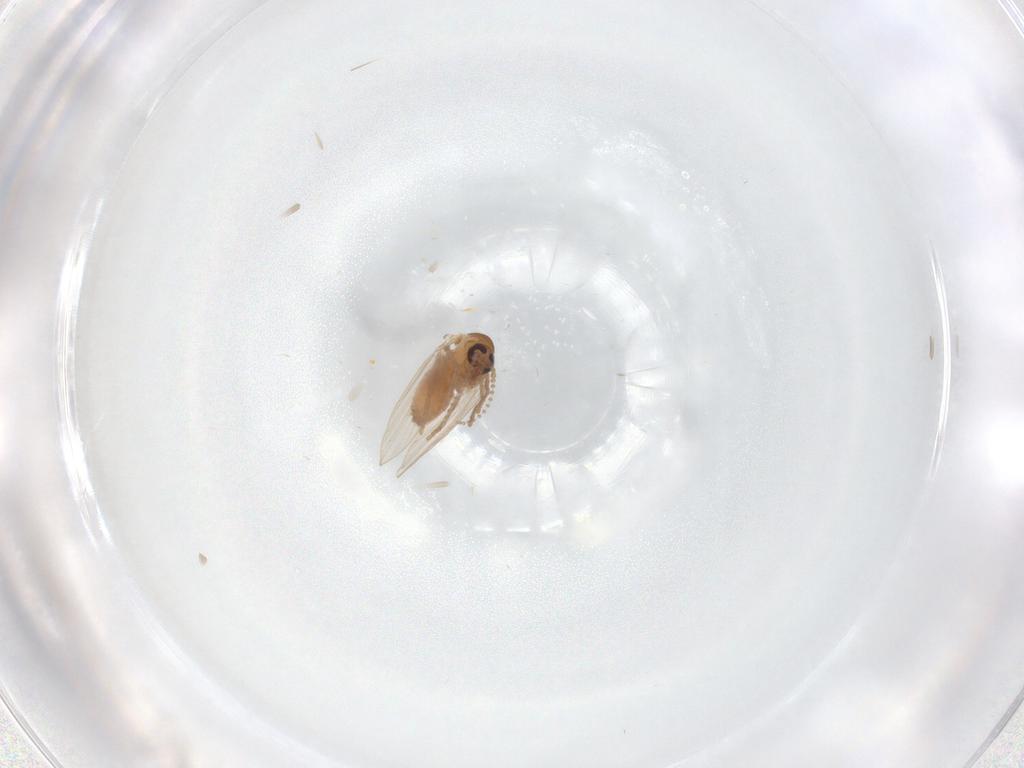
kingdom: Animalia
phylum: Arthropoda
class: Insecta
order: Diptera
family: Psychodidae
